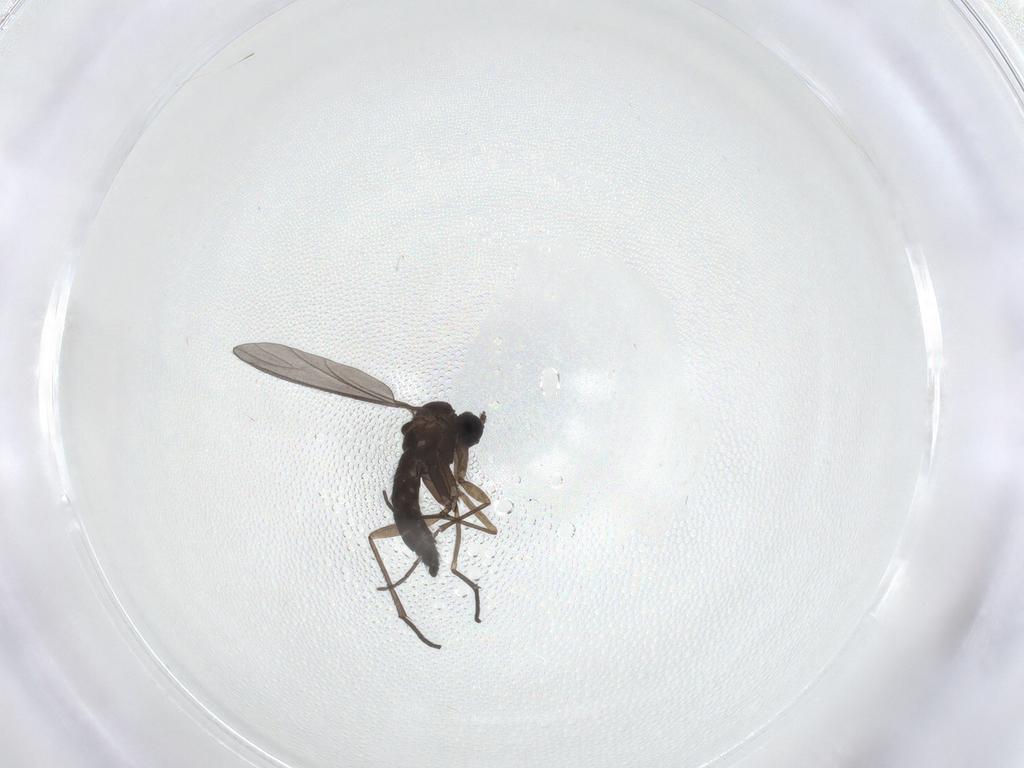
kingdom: Animalia
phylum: Arthropoda
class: Insecta
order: Diptera
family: Sciaridae
